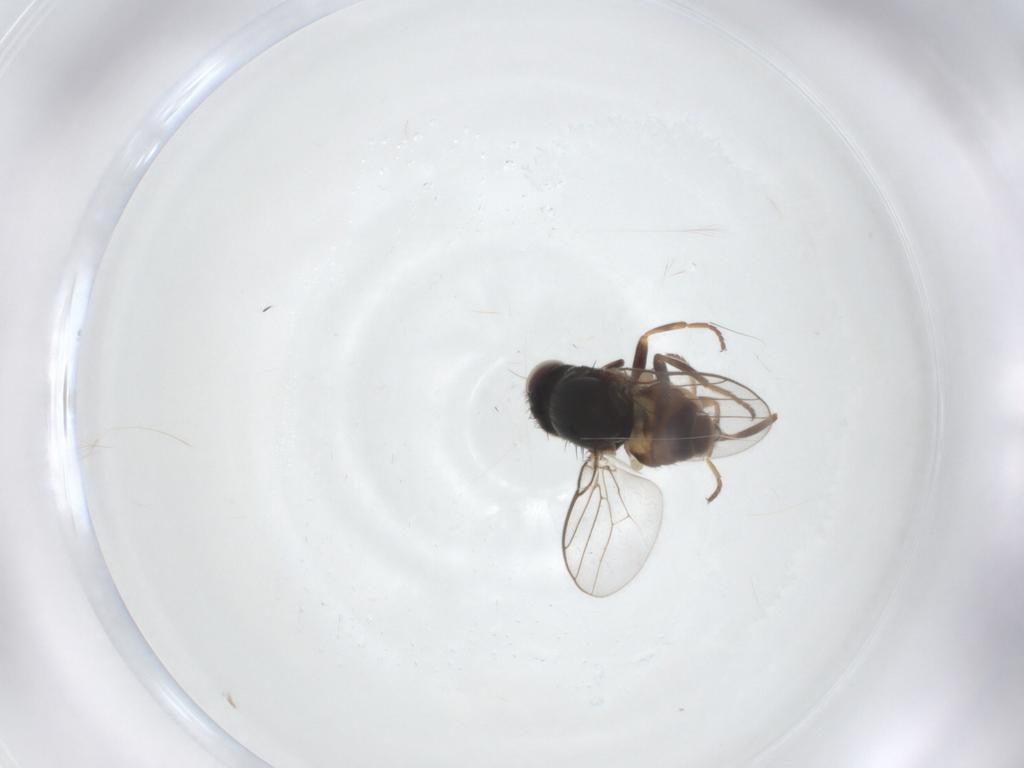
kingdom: Animalia
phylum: Arthropoda
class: Insecta
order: Diptera
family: Chloropidae
